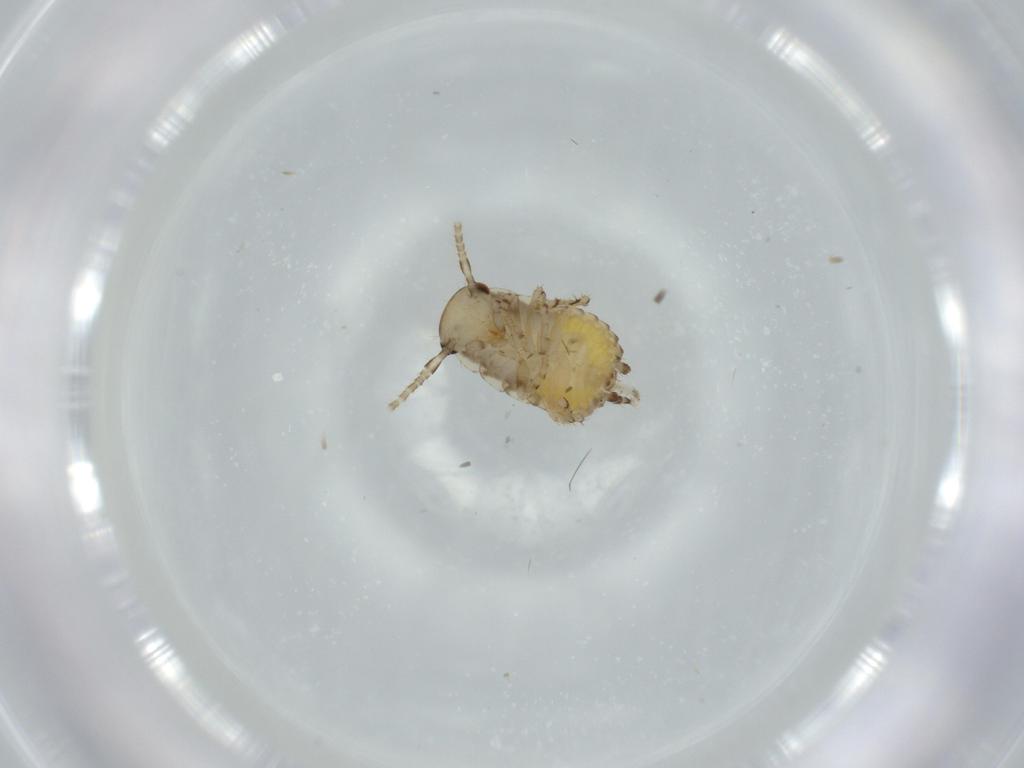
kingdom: Animalia
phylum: Arthropoda
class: Insecta
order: Blattodea
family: Ectobiidae
